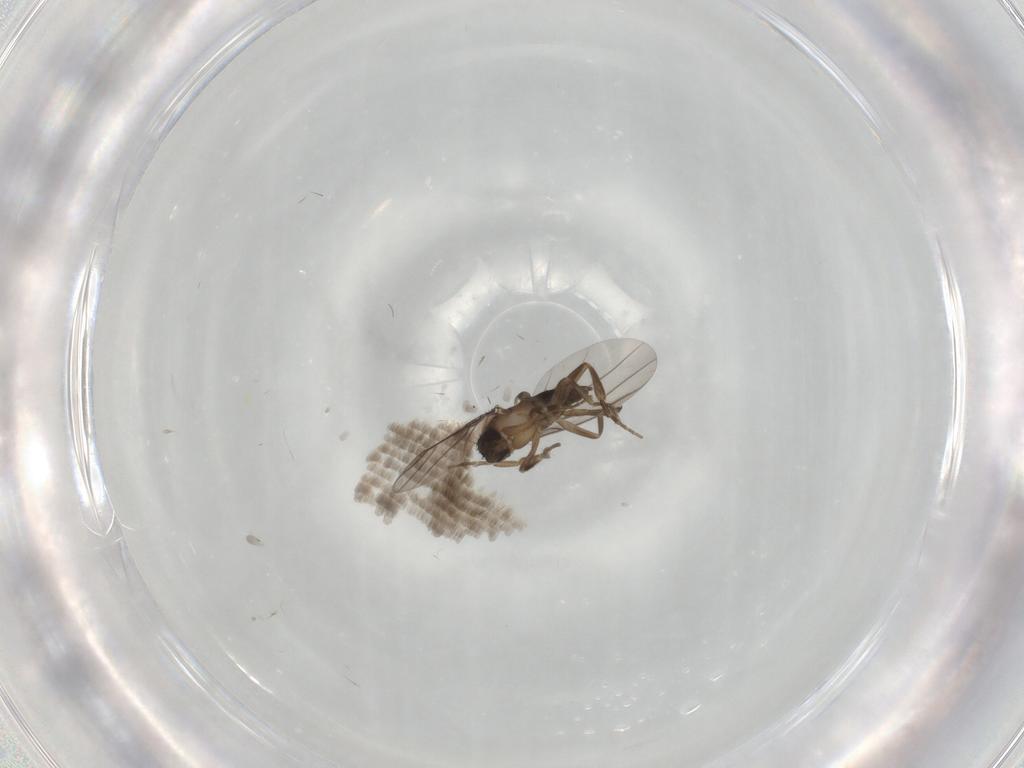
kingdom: Animalia
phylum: Arthropoda
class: Insecta
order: Diptera
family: Phoridae
